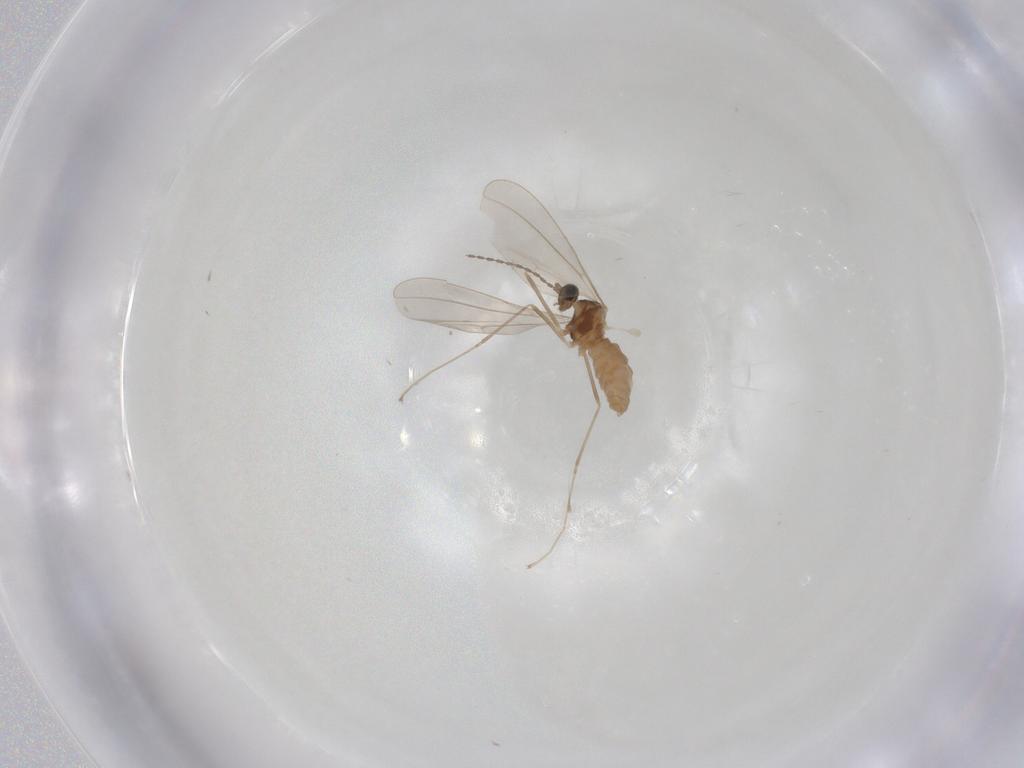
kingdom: Animalia
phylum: Arthropoda
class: Insecta
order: Diptera
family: Cecidomyiidae
